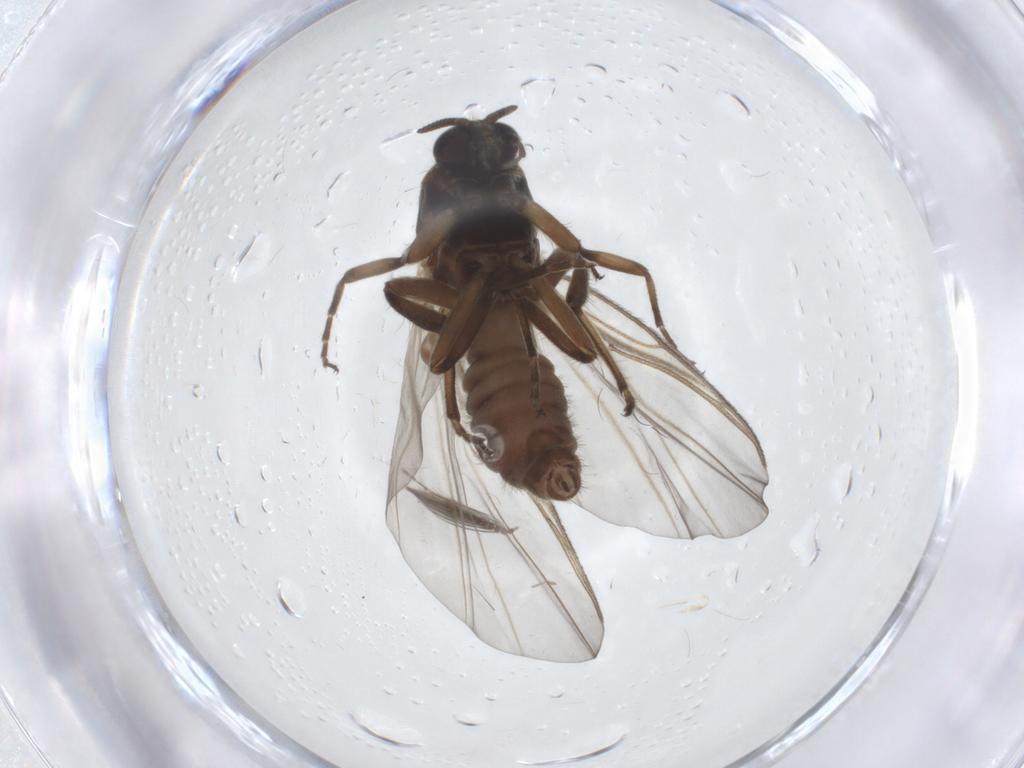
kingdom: Animalia
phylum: Arthropoda
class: Insecta
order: Diptera
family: Simuliidae
